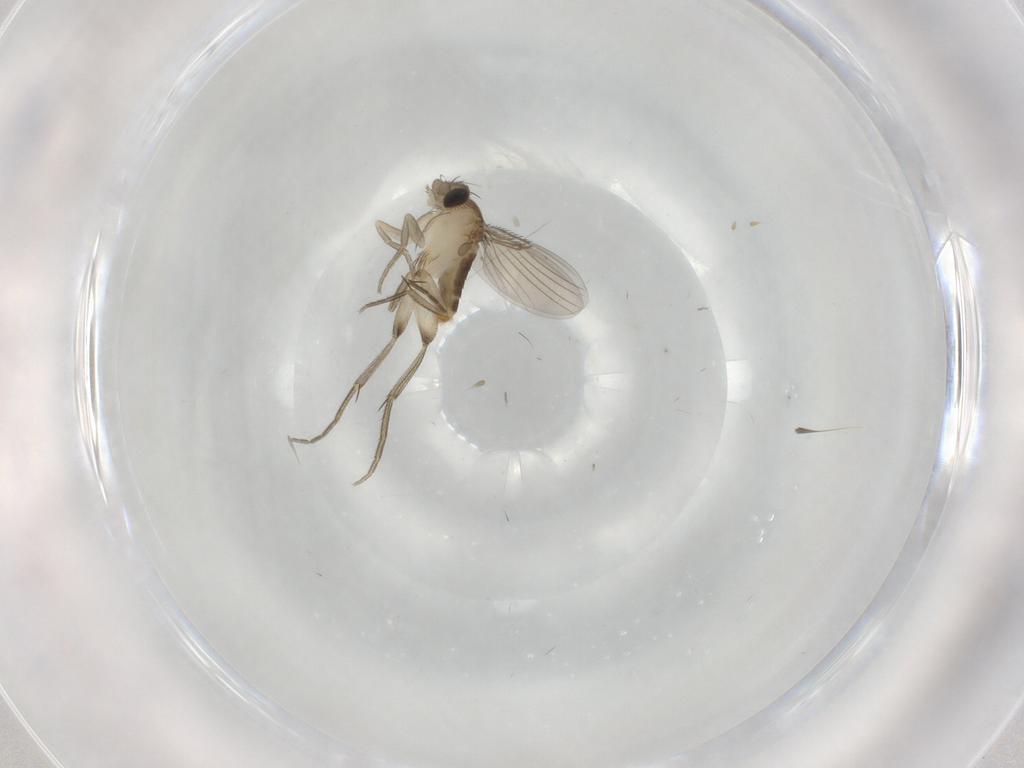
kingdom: Animalia
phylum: Arthropoda
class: Insecta
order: Diptera
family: Phoridae
